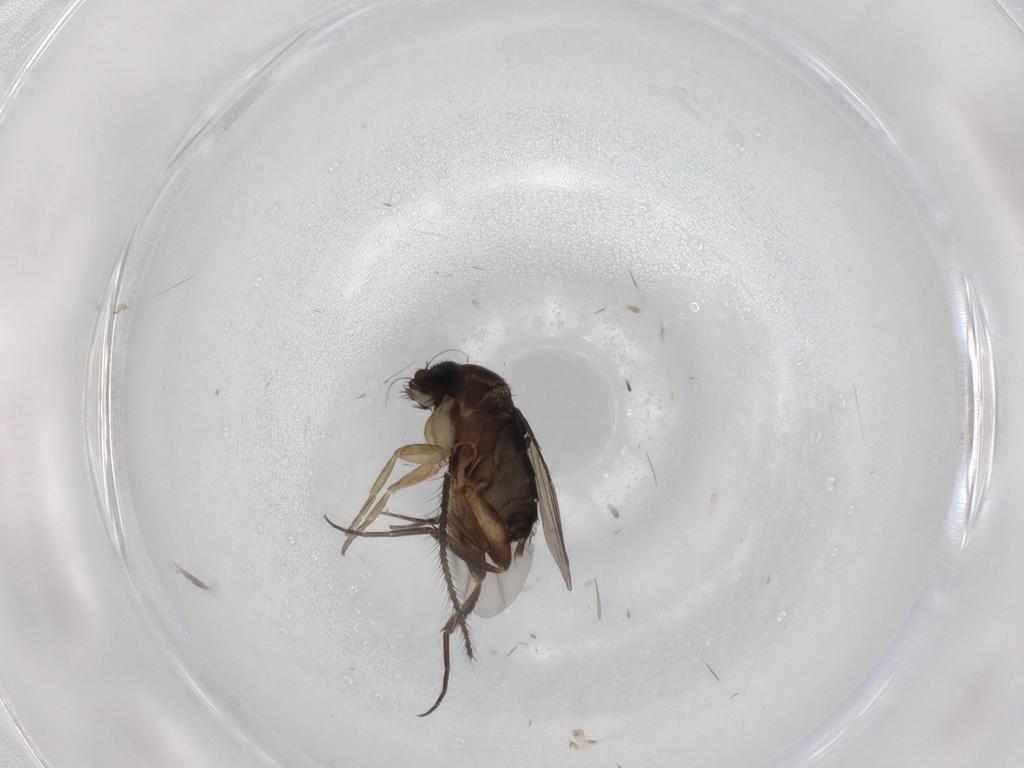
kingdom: Animalia
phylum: Arthropoda
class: Insecta
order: Diptera
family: Phoridae
